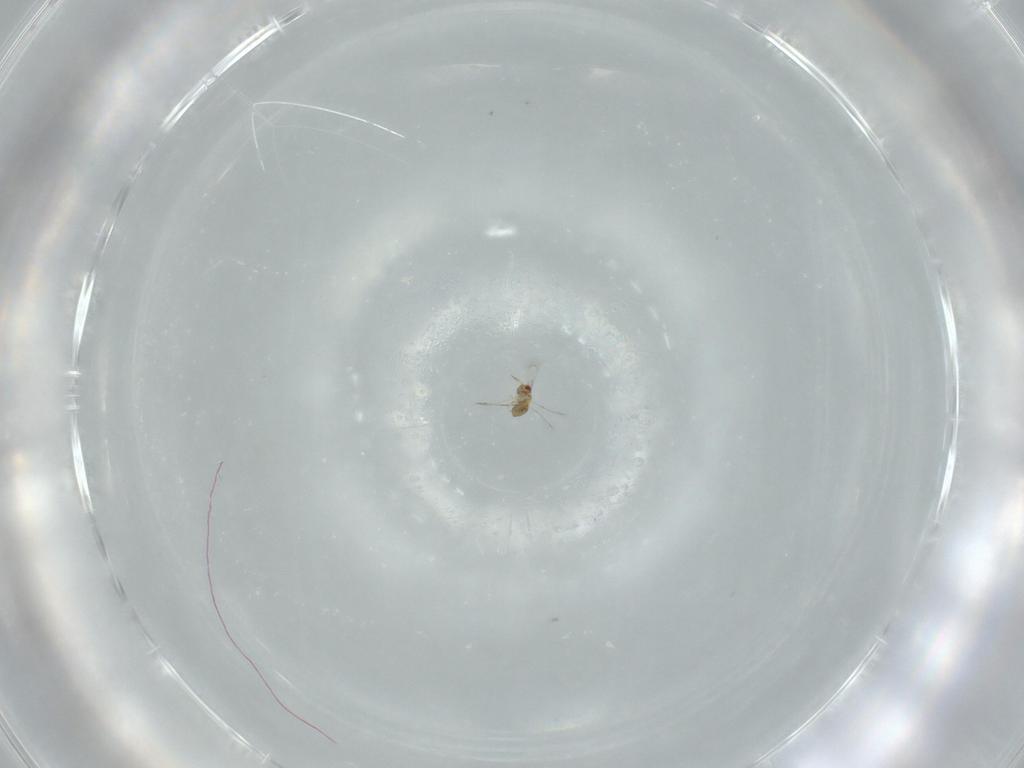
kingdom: Animalia
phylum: Arthropoda
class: Insecta
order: Hymenoptera
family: Trichogrammatidae
